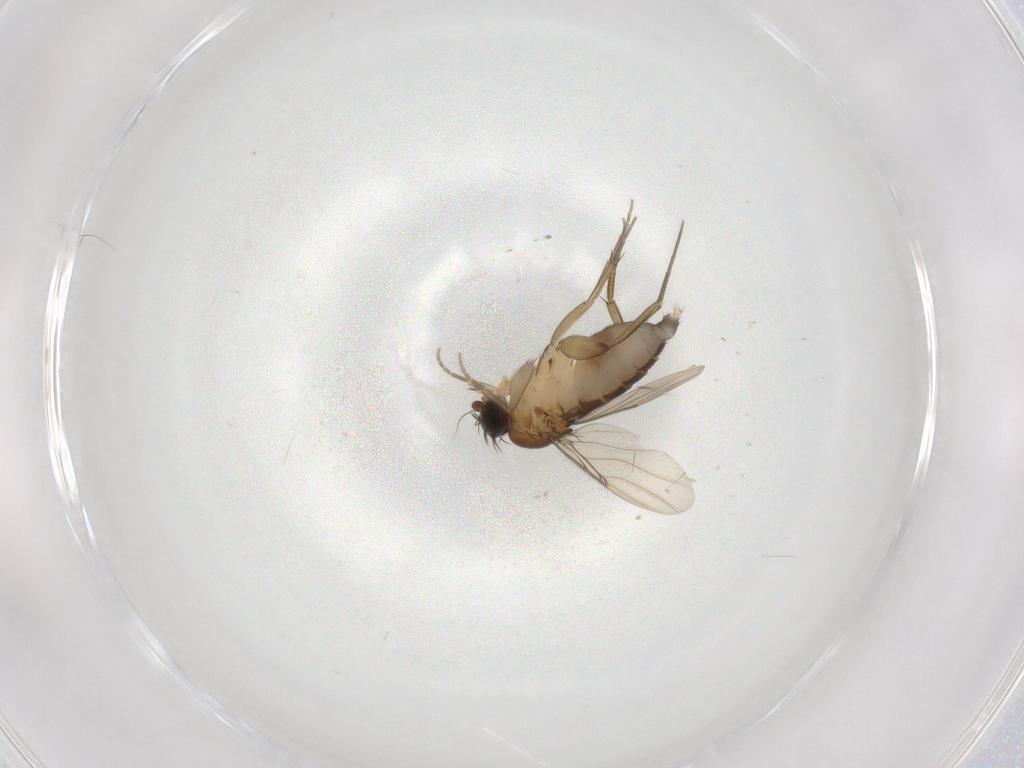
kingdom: Animalia
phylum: Arthropoda
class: Insecta
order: Diptera
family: Phoridae
